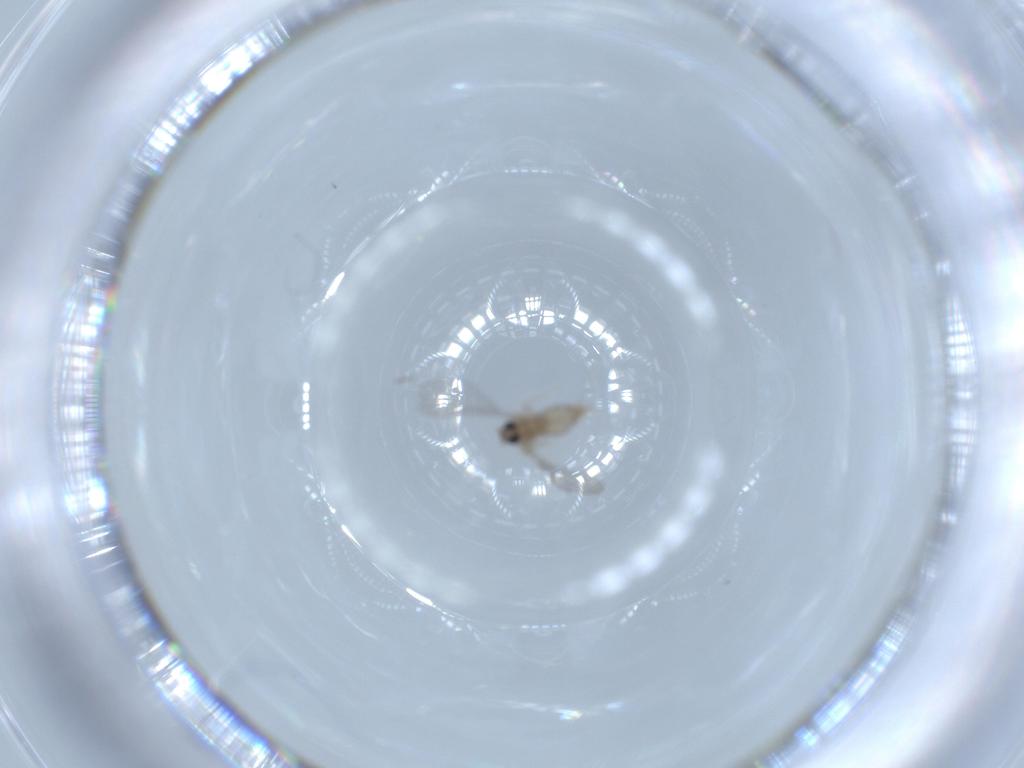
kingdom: Animalia
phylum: Arthropoda
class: Insecta
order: Diptera
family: Cecidomyiidae
